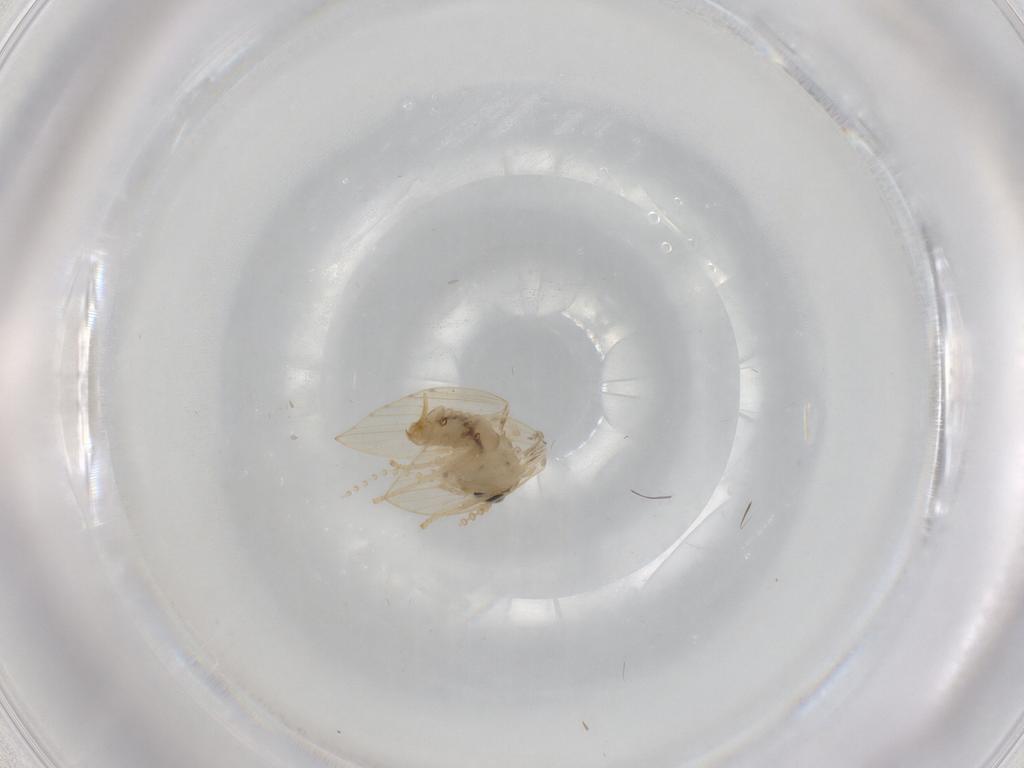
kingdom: Animalia
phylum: Arthropoda
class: Insecta
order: Diptera
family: Psychodidae
